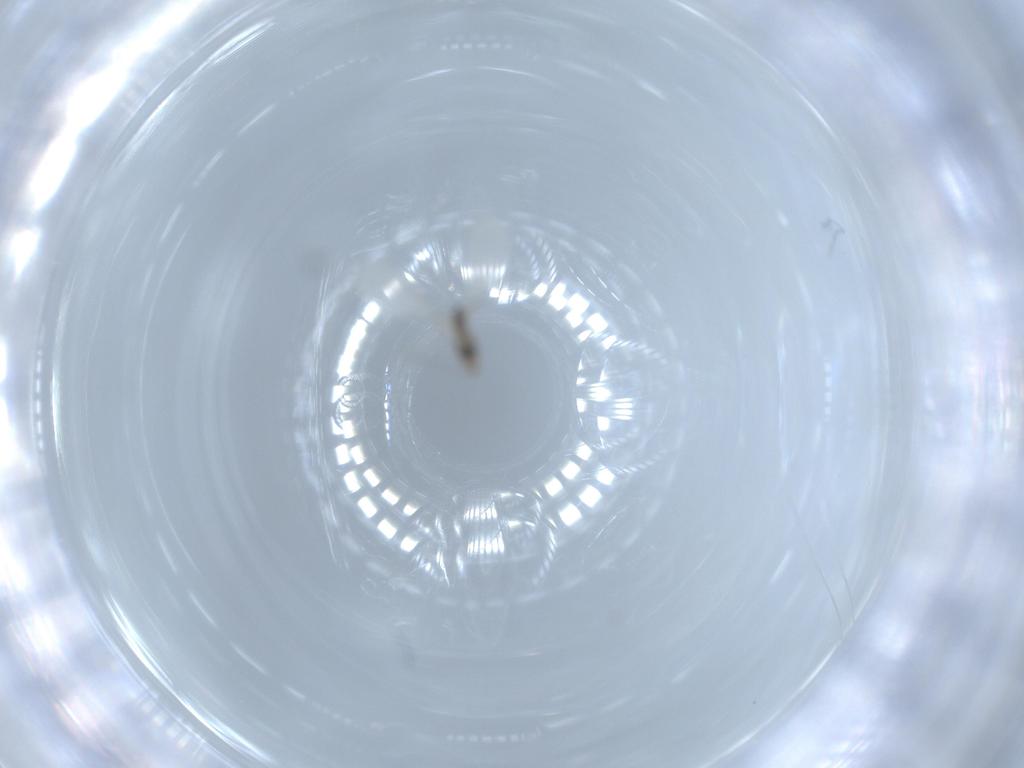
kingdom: Animalia
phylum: Arthropoda
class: Insecta
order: Diptera
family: Cecidomyiidae
